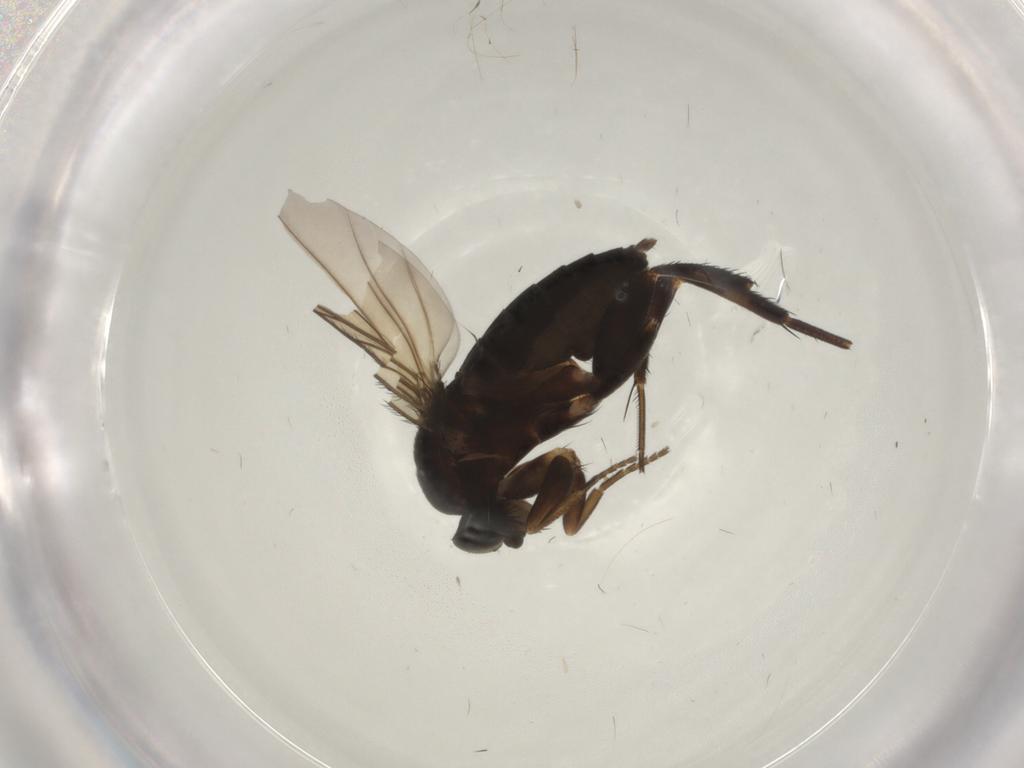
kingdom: Animalia
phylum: Arthropoda
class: Insecta
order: Diptera
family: Phoridae
